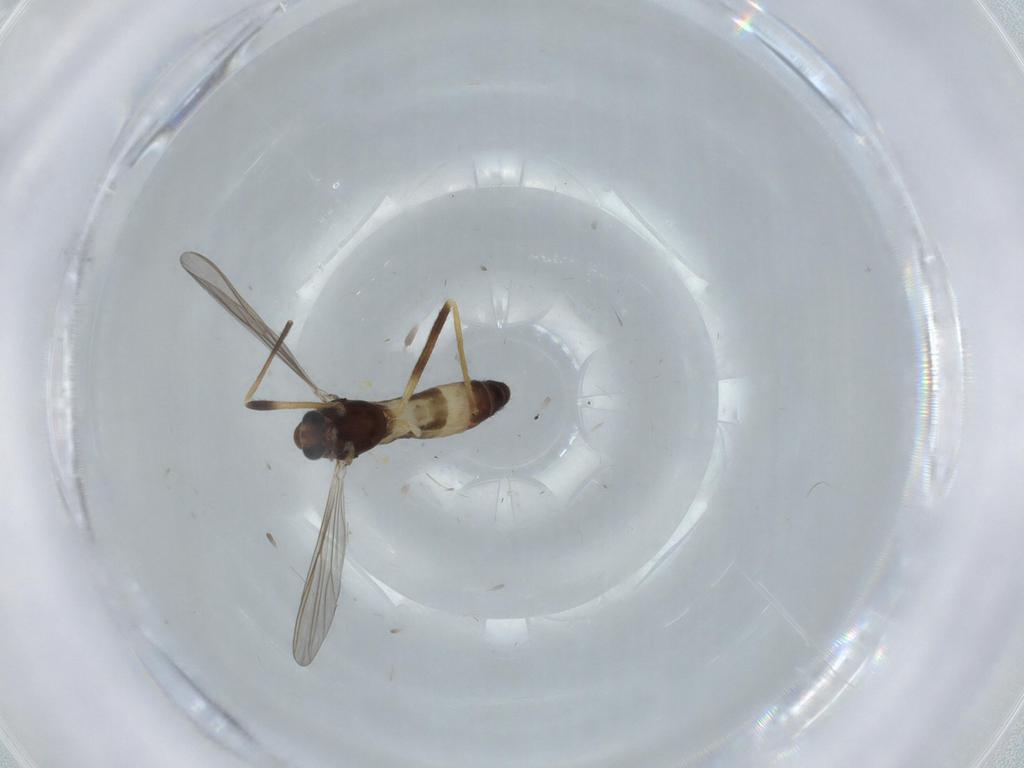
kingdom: Animalia
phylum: Arthropoda
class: Insecta
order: Diptera
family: Chironomidae
